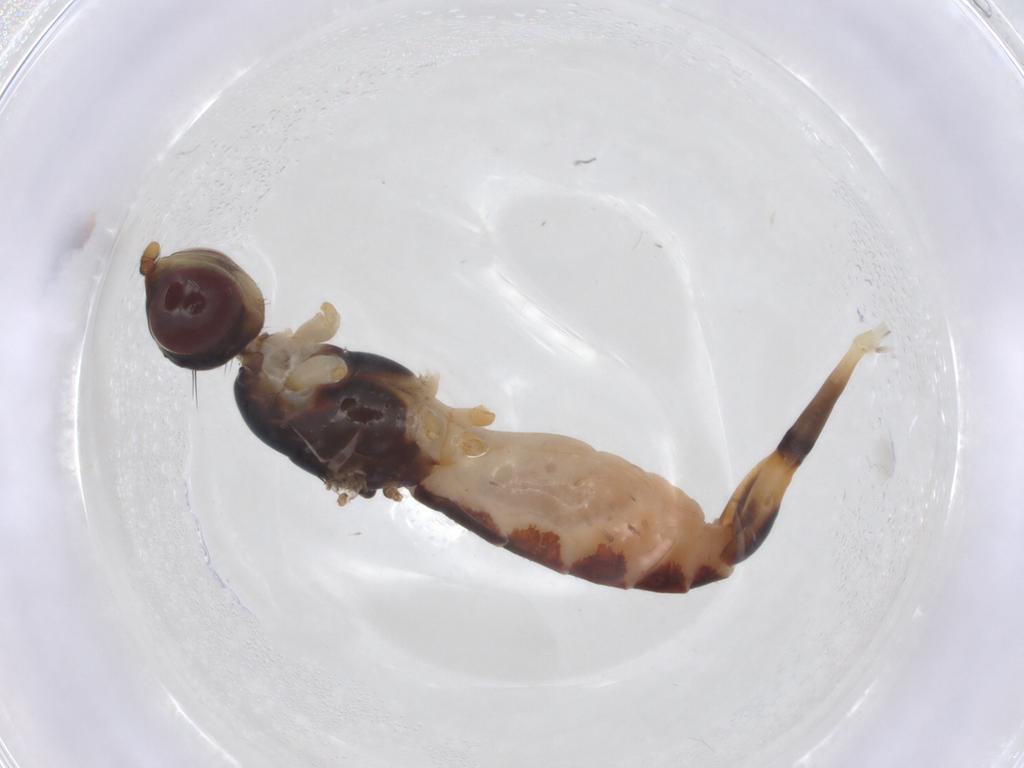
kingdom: Animalia
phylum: Arthropoda
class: Insecta
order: Diptera
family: Micropezidae
